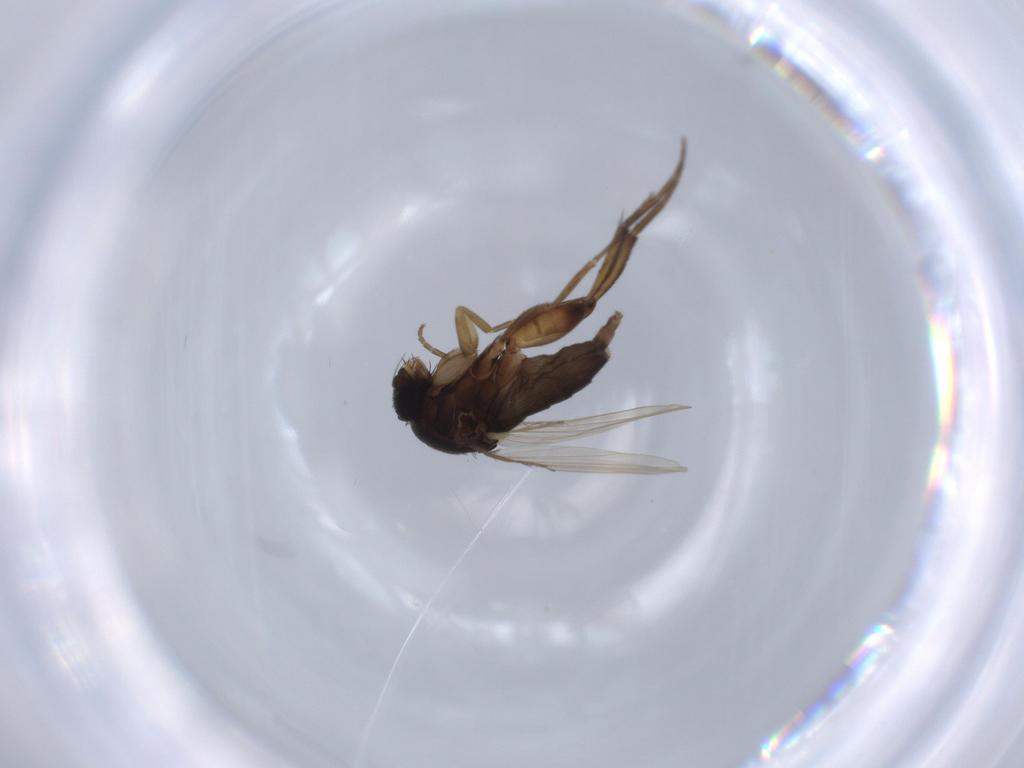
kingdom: Animalia
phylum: Arthropoda
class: Insecta
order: Diptera
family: Phoridae
